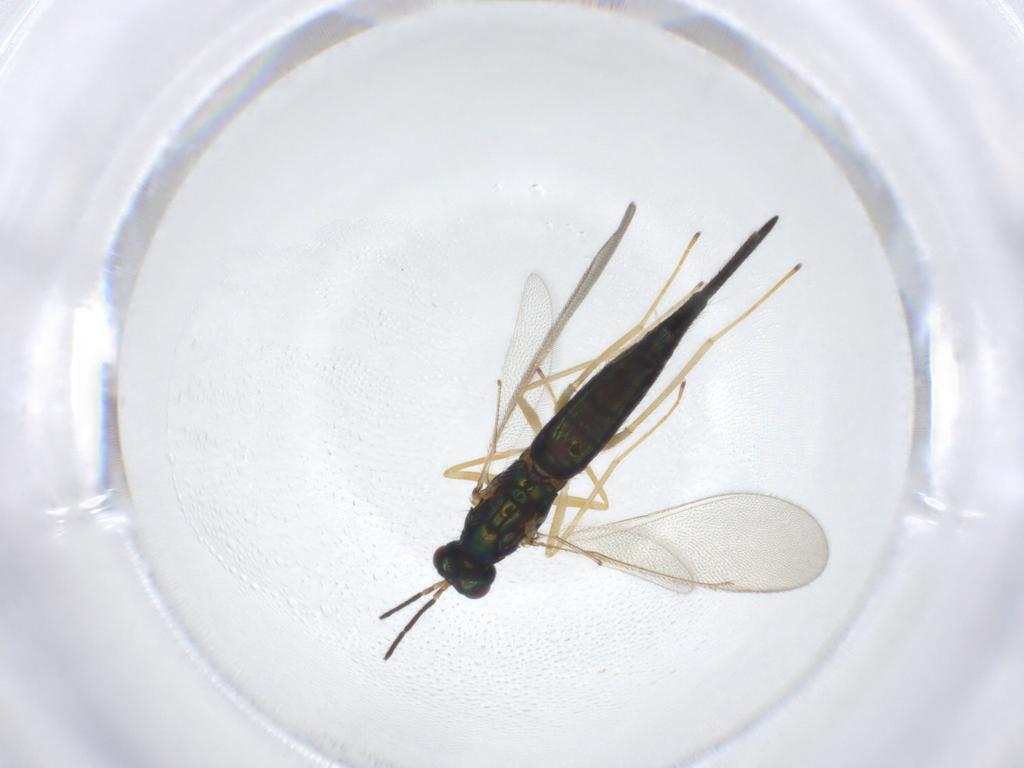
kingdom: Animalia
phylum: Arthropoda
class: Insecta
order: Hymenoptera
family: Eulophidae
